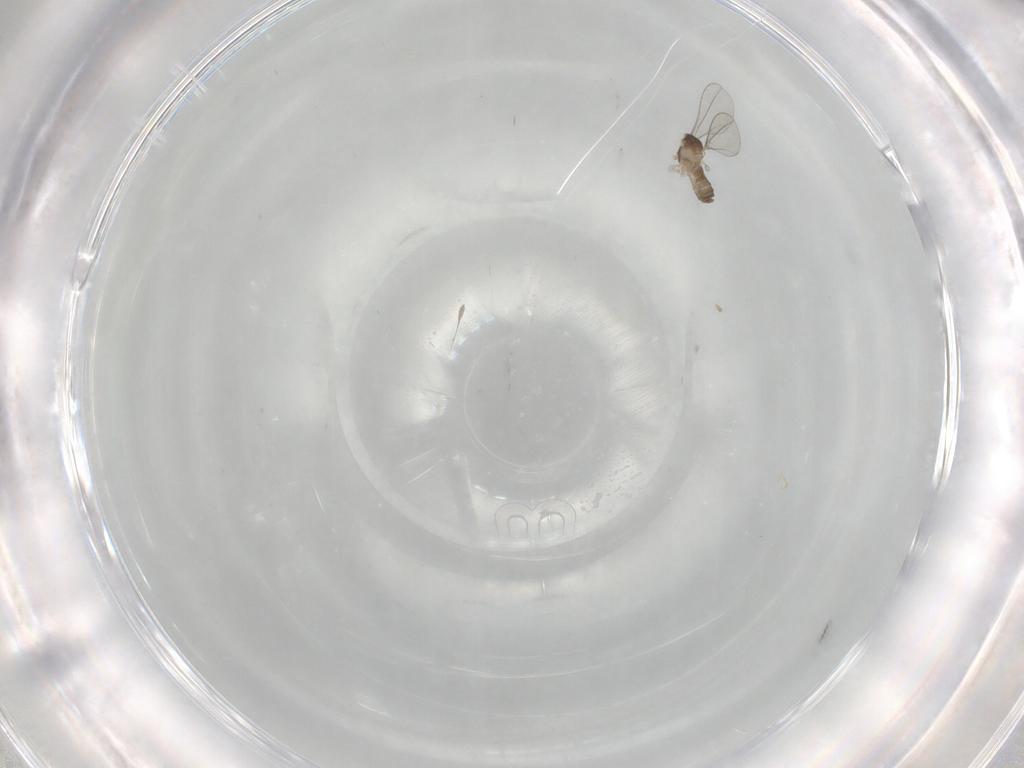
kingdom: Animalia
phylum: Arthropoda
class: Insecta
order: Diptera
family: Cecidomyiidae
